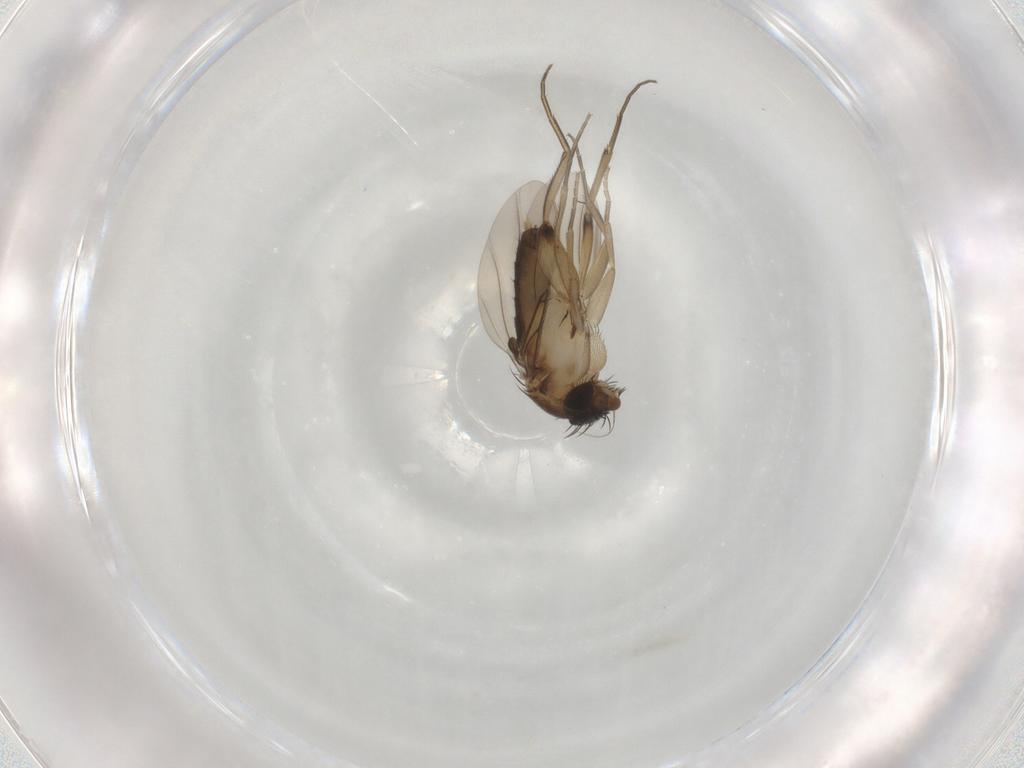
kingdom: Animalia
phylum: Arthropoda
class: Insecta
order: Diptera
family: Phoridae
